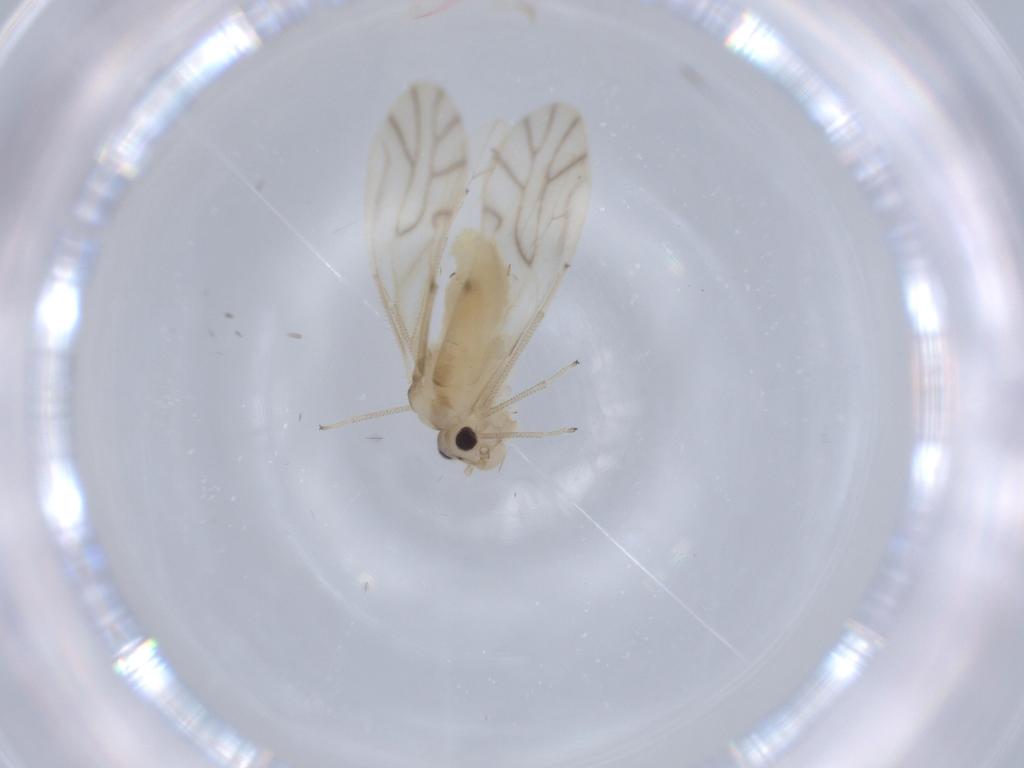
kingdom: Animalia
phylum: Arthropoda
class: Insecta
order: Psocodea
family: Caeciliusidae
